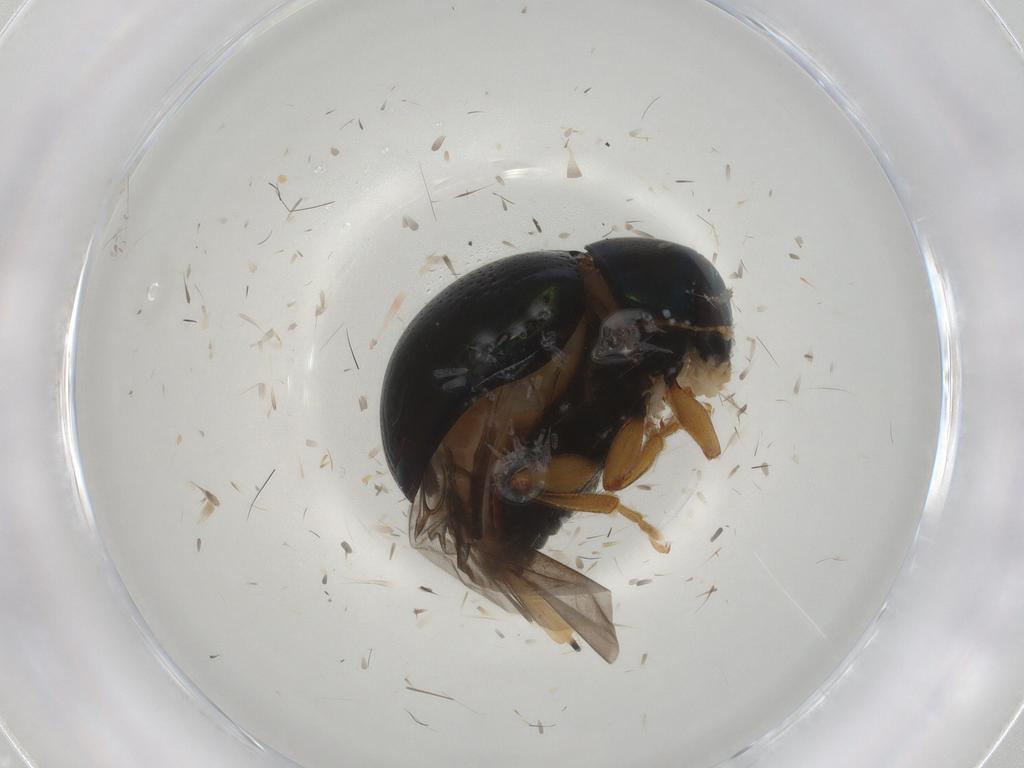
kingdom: Animalia
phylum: Arthropoda
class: Insecta
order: Coleoptera
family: Chrysomelidae
